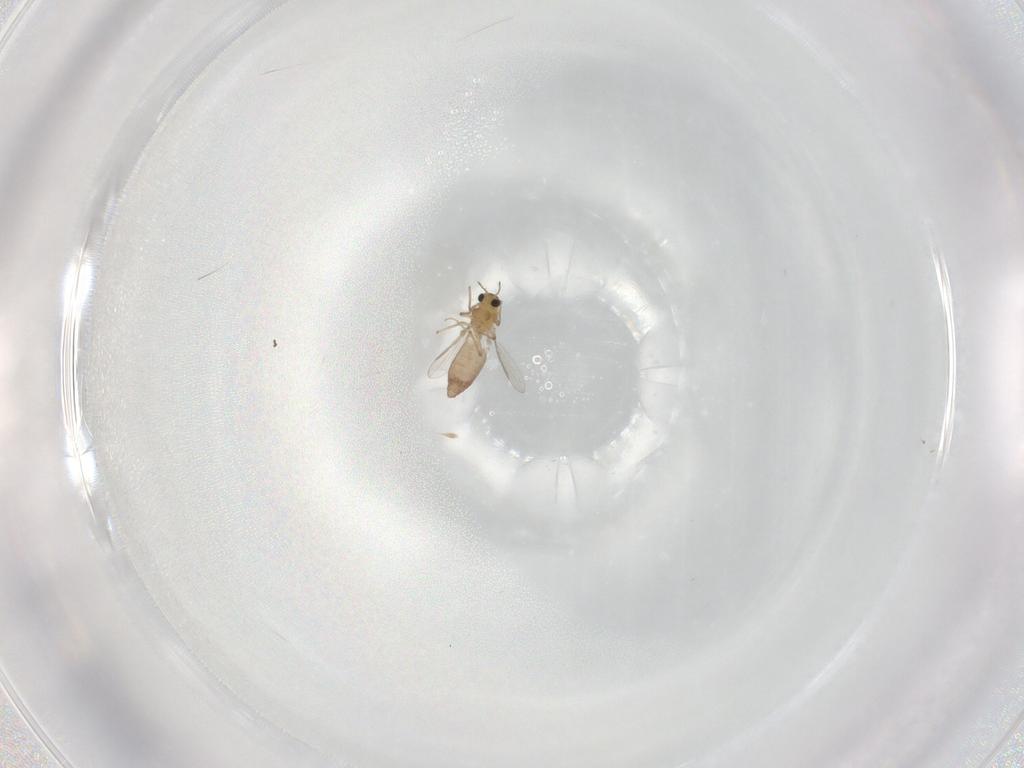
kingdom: Animalia
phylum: Arthropoda
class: Insecta
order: Diptera
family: Chironomidae
